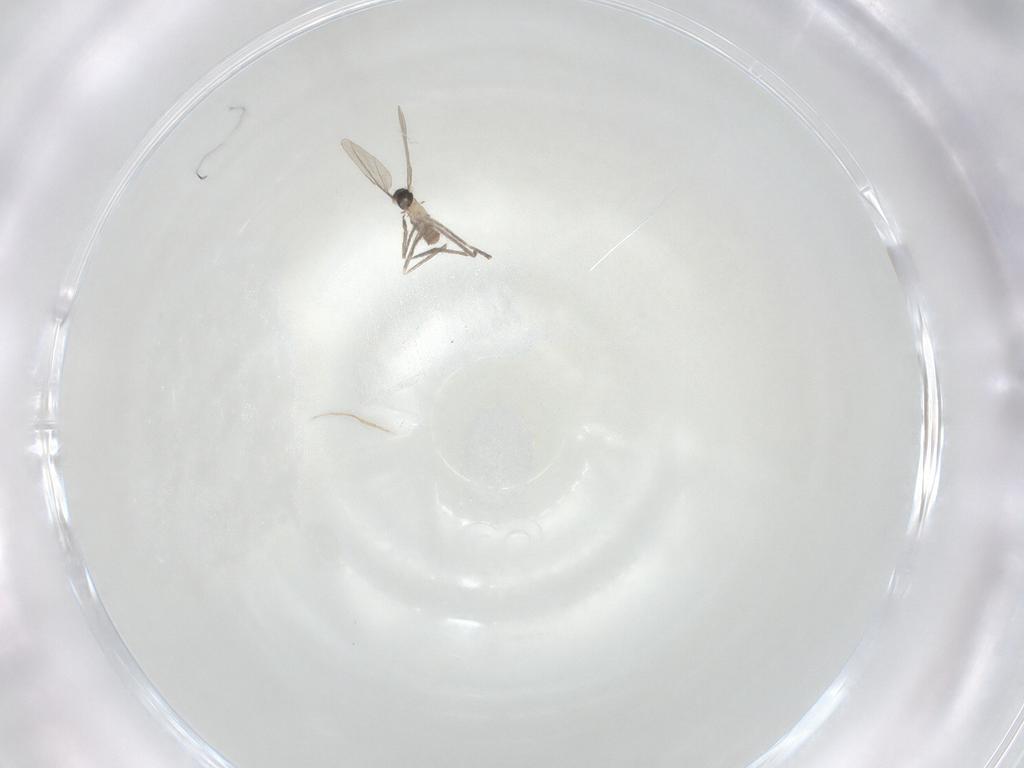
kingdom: Animalia
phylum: Arthropoda
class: Insecta
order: Diptera
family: Cecidomyiidae
